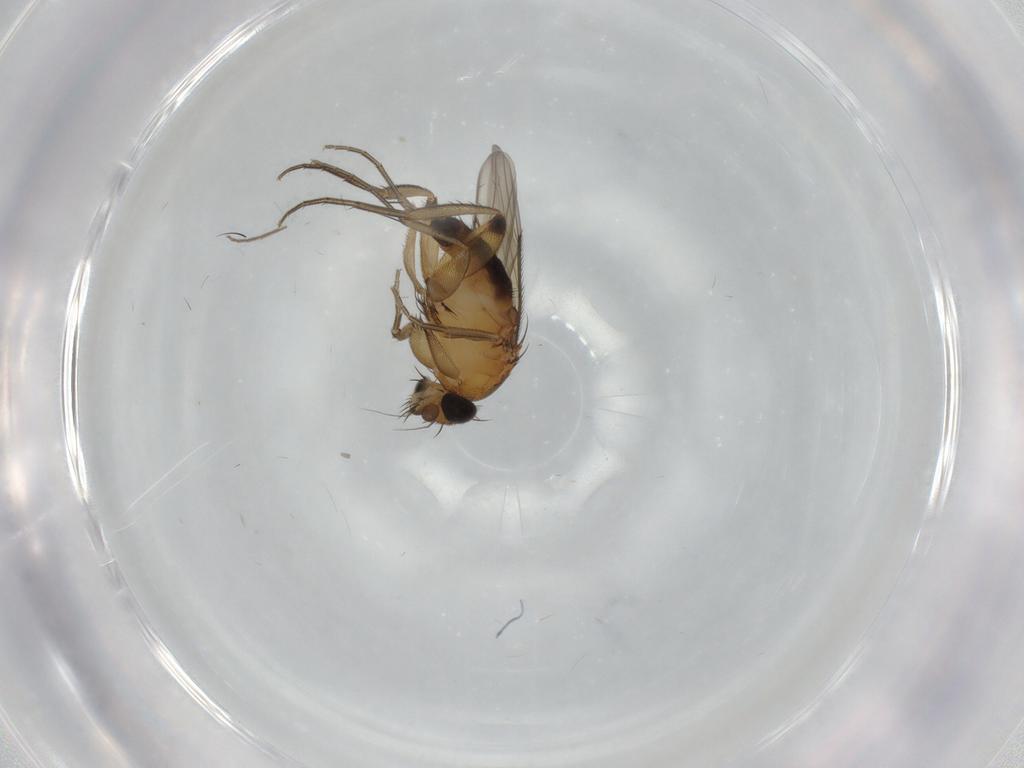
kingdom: Animalia
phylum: Arthropoda
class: Insecta
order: Diptera
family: Phoridae
